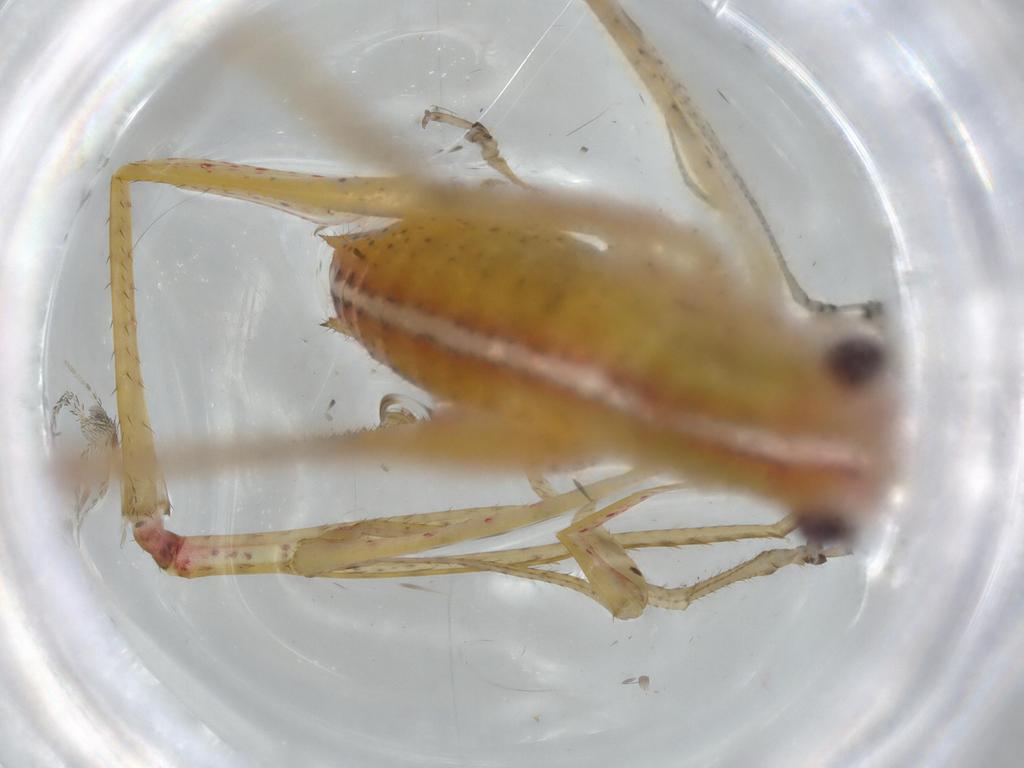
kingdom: Animalia
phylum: Arthropoda
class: Insecta
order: Orthoptera
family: Tettigoniidae
